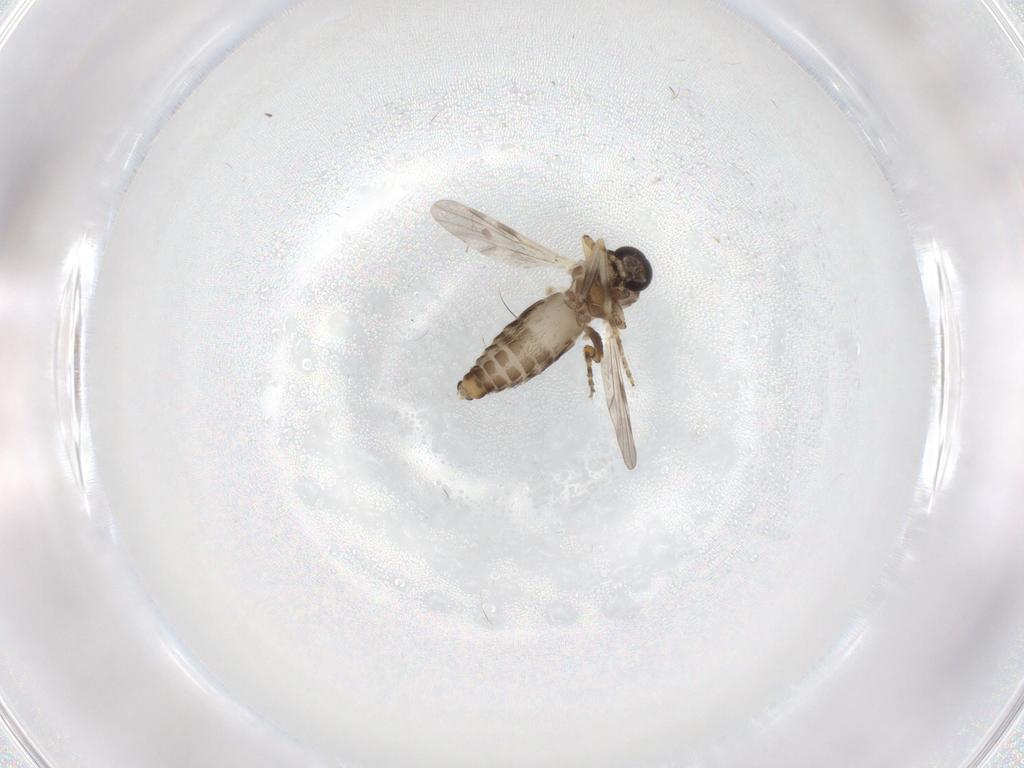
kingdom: Animalia
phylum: Arthropoda
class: Insecta
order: Diptera
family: Ceratopogonidae
